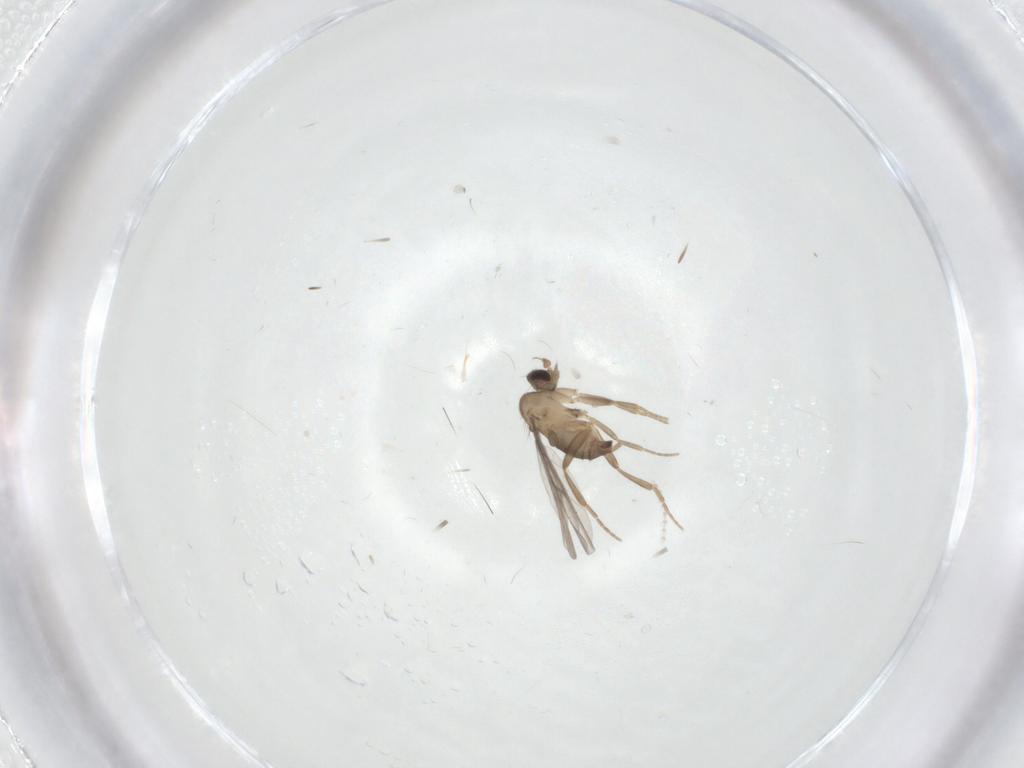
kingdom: Animalia
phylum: Arthropoda
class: Insecta
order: Diptera
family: Cecidomyiidae
